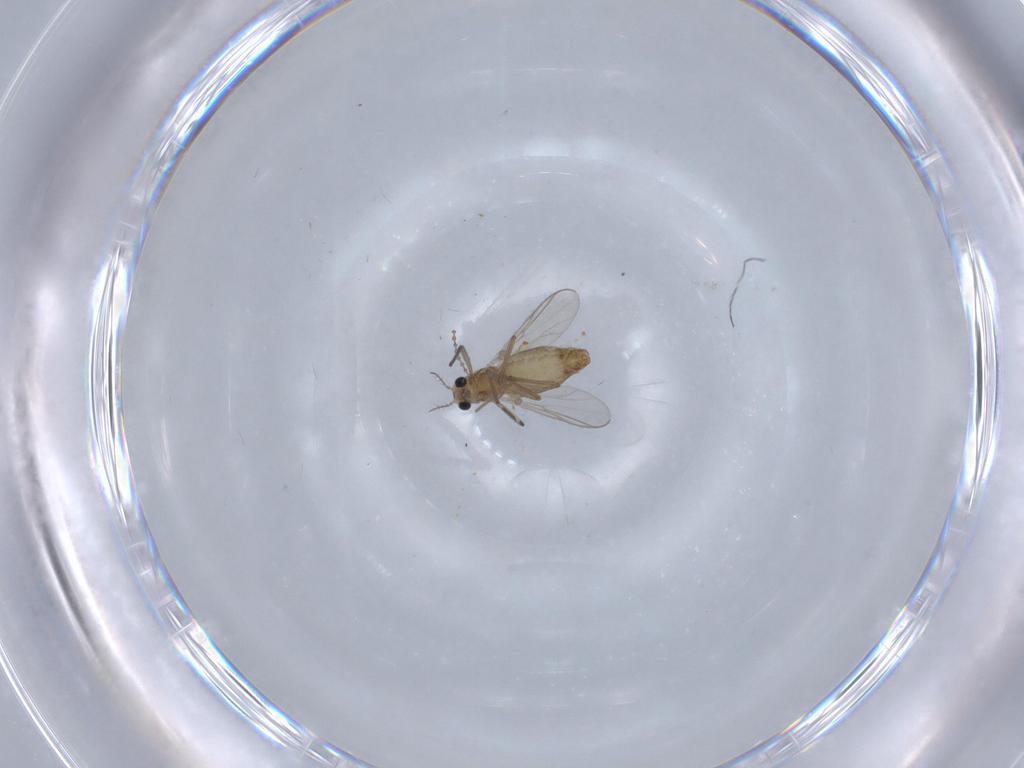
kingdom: Animalia
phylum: Arthropoda
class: Insecta
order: Diptera
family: Chironomidae
